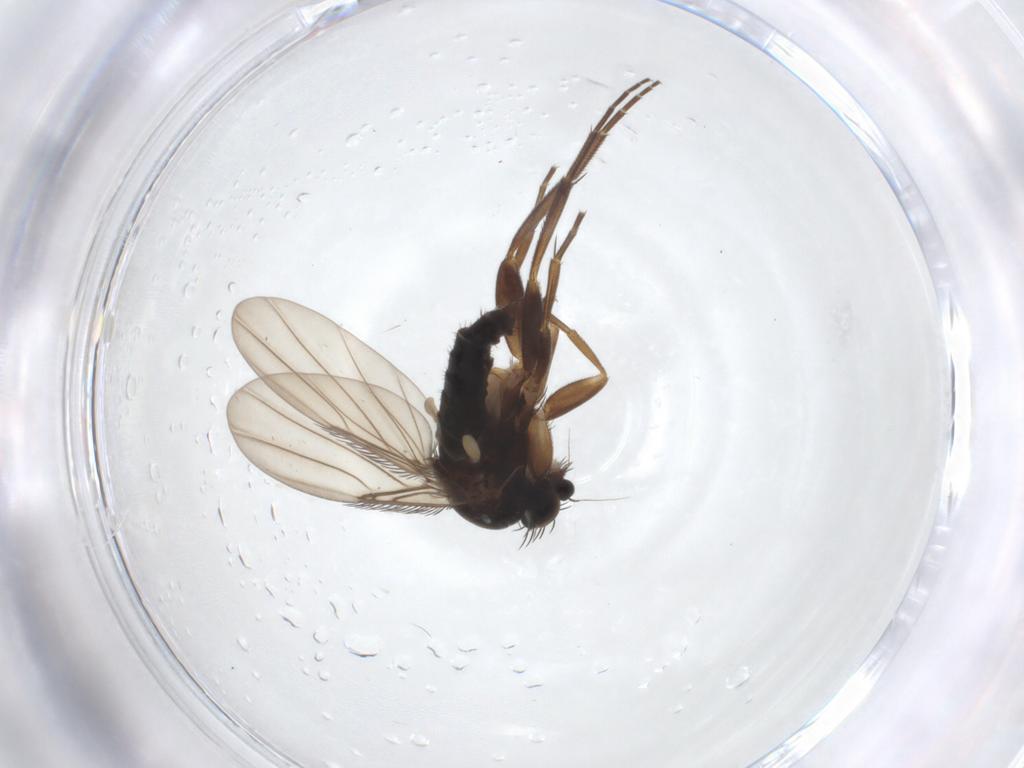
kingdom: Animalia
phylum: Arthropoda
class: Insecta
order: Diptera
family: Phoridae
